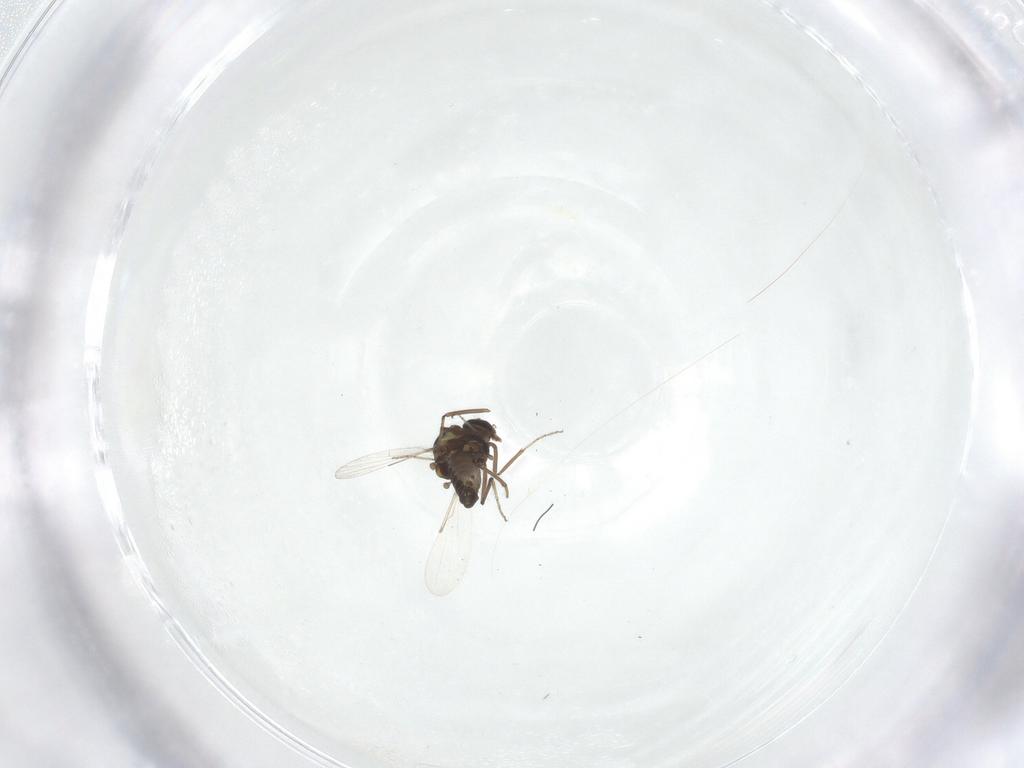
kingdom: Animalia
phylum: Arthropoda
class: Insecta
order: Diptera
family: Ceratopogonidae
